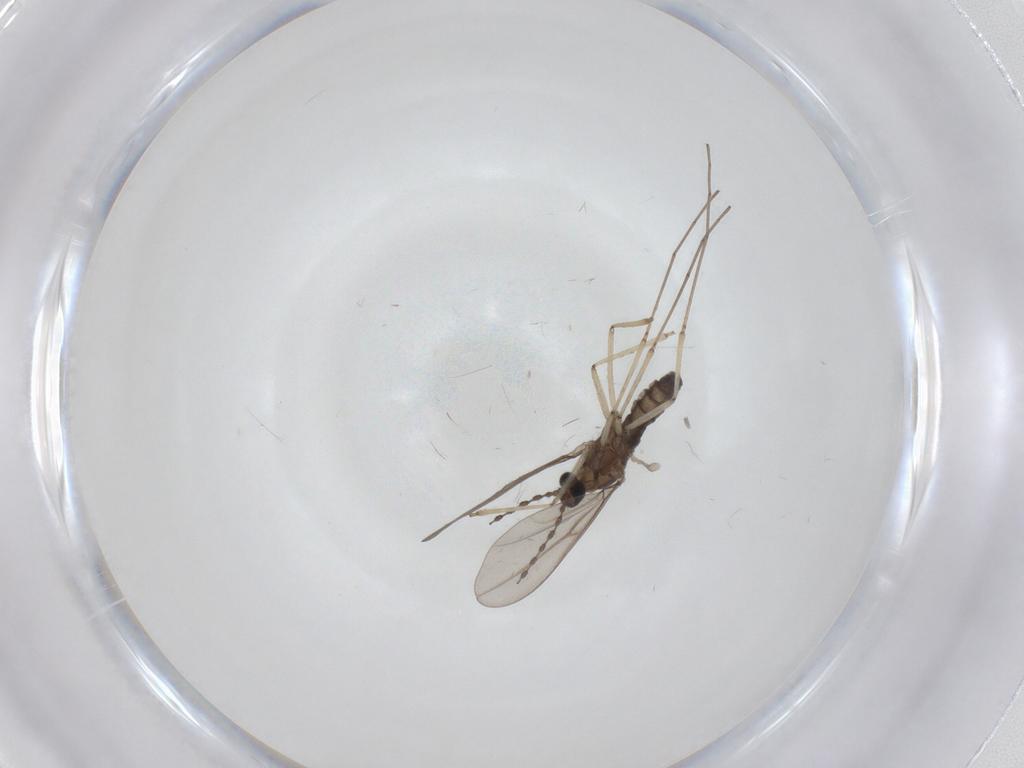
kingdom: Animalia
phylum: Arthropoda
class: Insecta
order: Diptera
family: Cecidomyiidae
